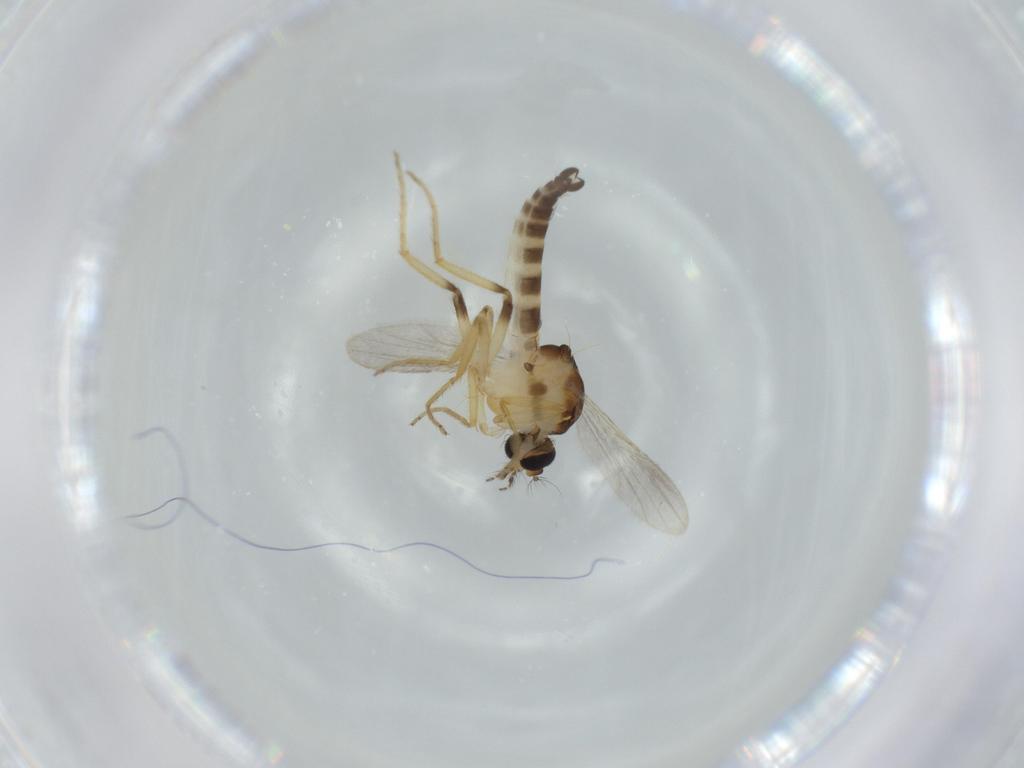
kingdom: Animalia
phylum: Arthropoda
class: Insecta
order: Diptera
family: Ceratopogonidae
